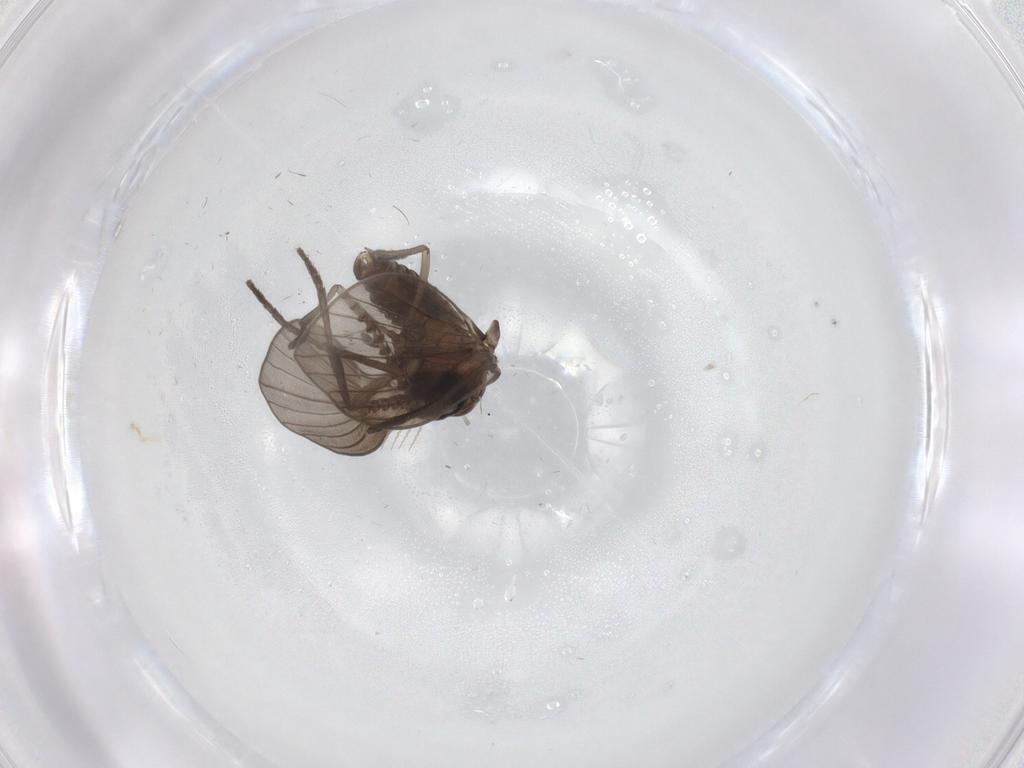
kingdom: Animalia
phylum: Arthropoda
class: Insecta
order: Diptera
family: Psychodidae
